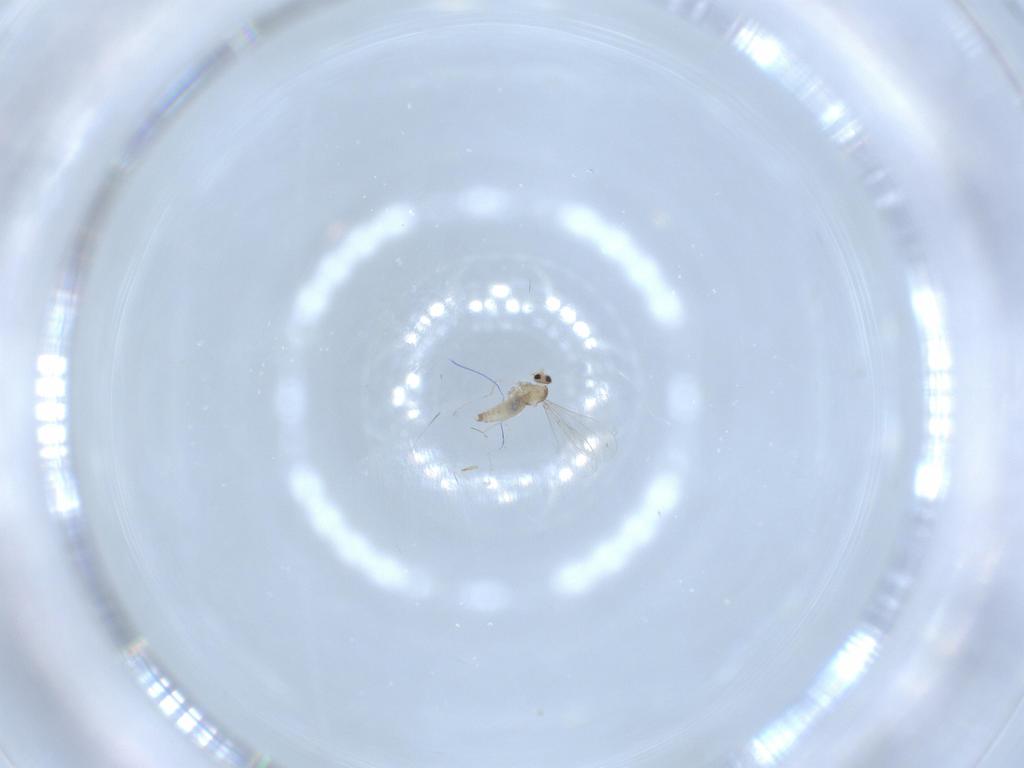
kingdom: Animalia
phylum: Arthropoda
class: Insecta
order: Diptera
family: Cecidomyiidae
